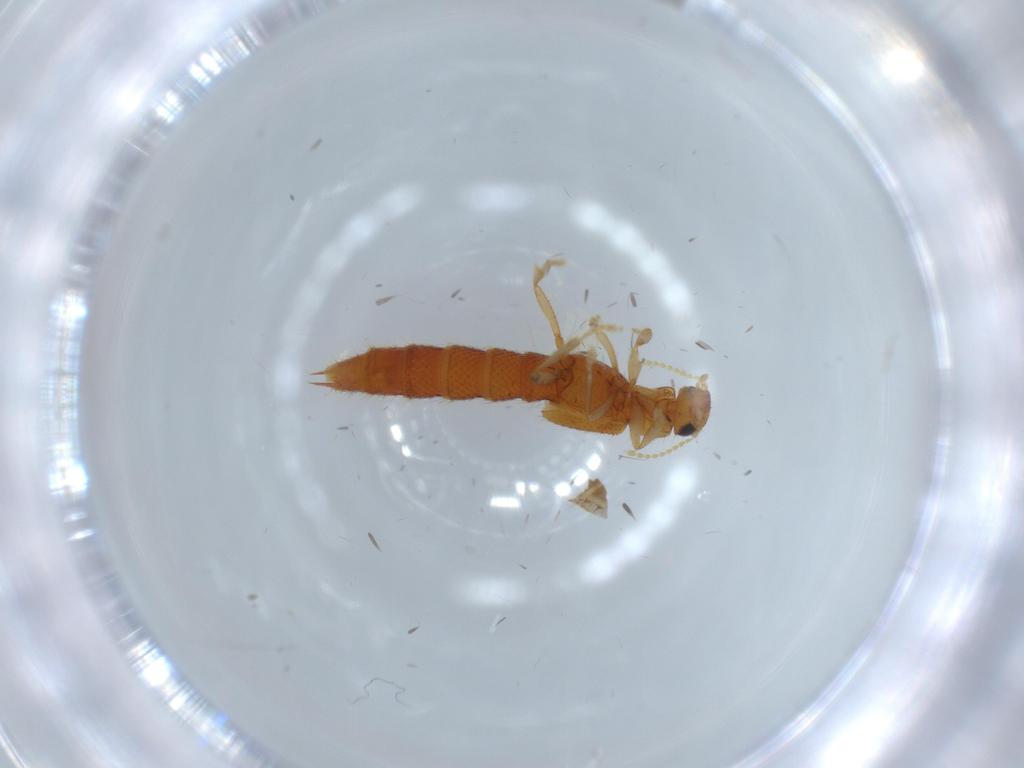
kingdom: Animalia
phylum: Arthropoda
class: Insecta
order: Coleoptera
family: Staphylinidae
